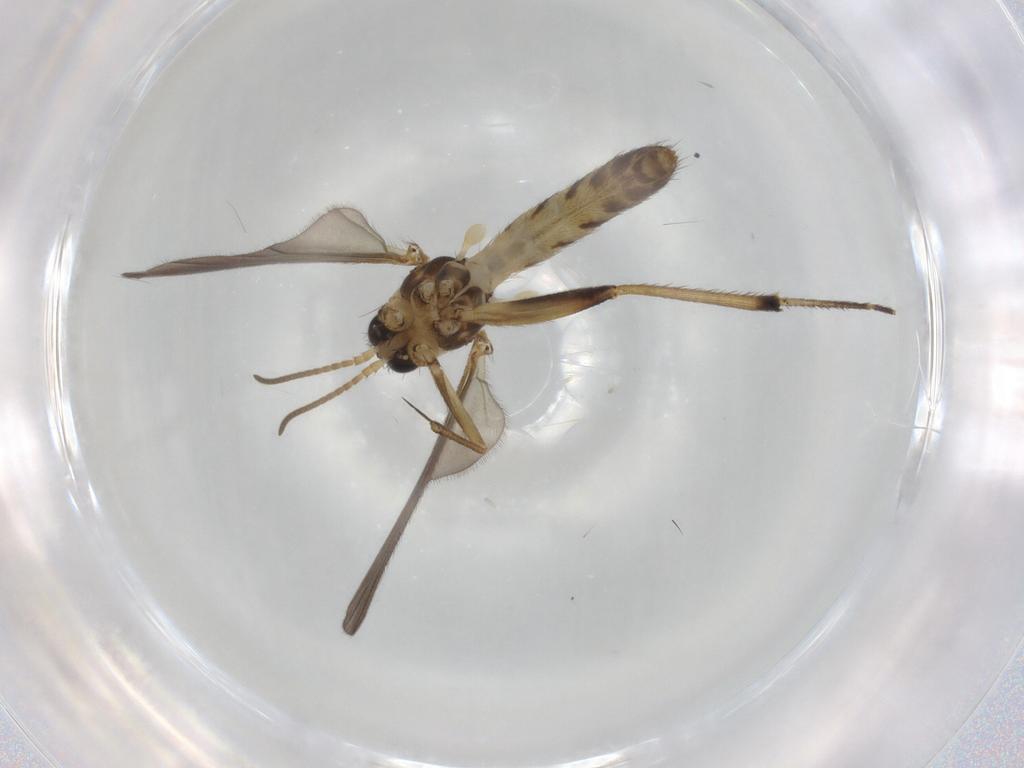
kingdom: Animalia
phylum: Arthropoda
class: Insecta
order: Diptera
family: Mycetophilidae
